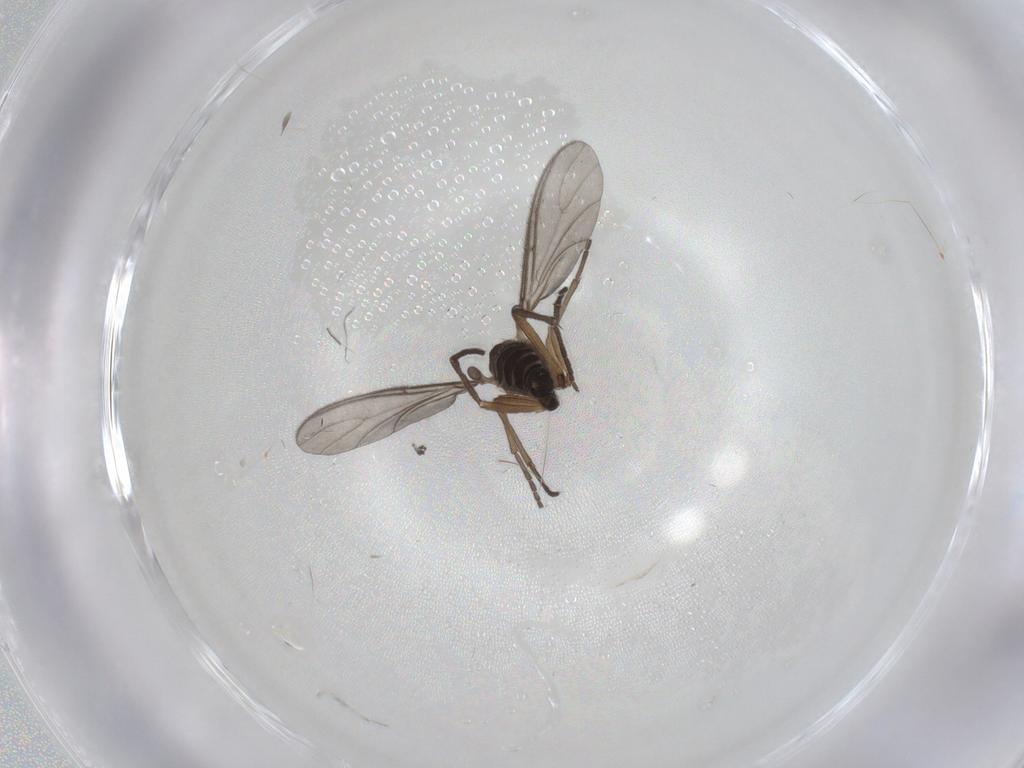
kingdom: Animalia
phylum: Arthropoda
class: Insecta
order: Diptera
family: Sciaridae
